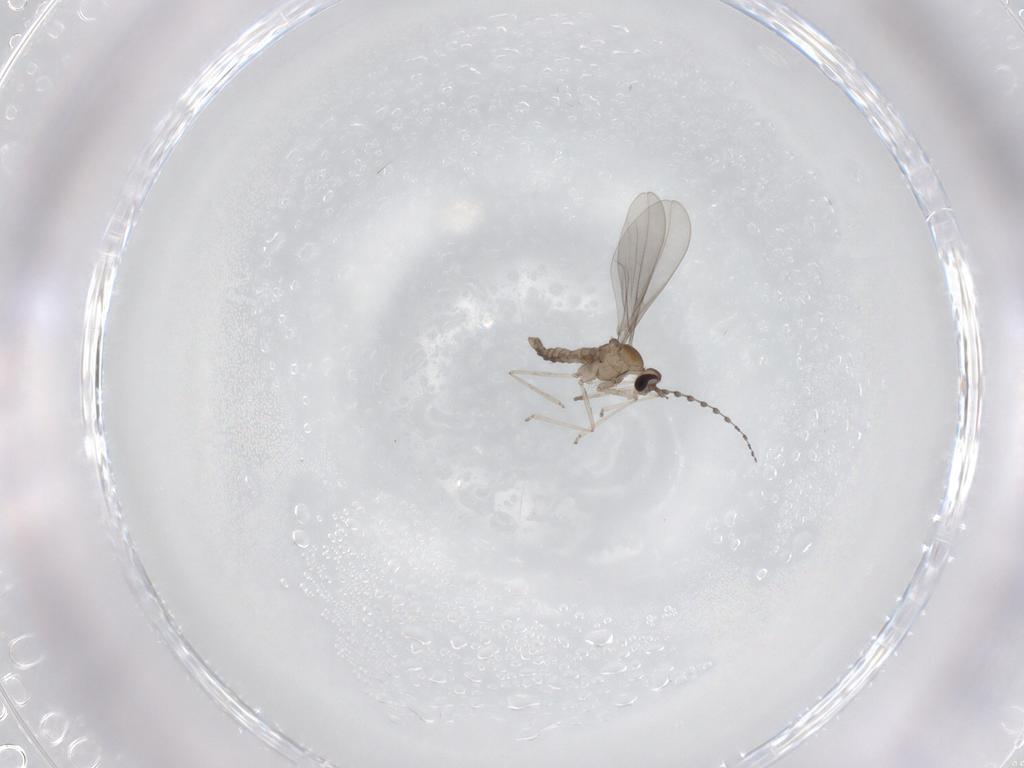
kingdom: Animalia
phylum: Arthropoda
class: Insecta
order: Diptera
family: Cecidomyiidae
